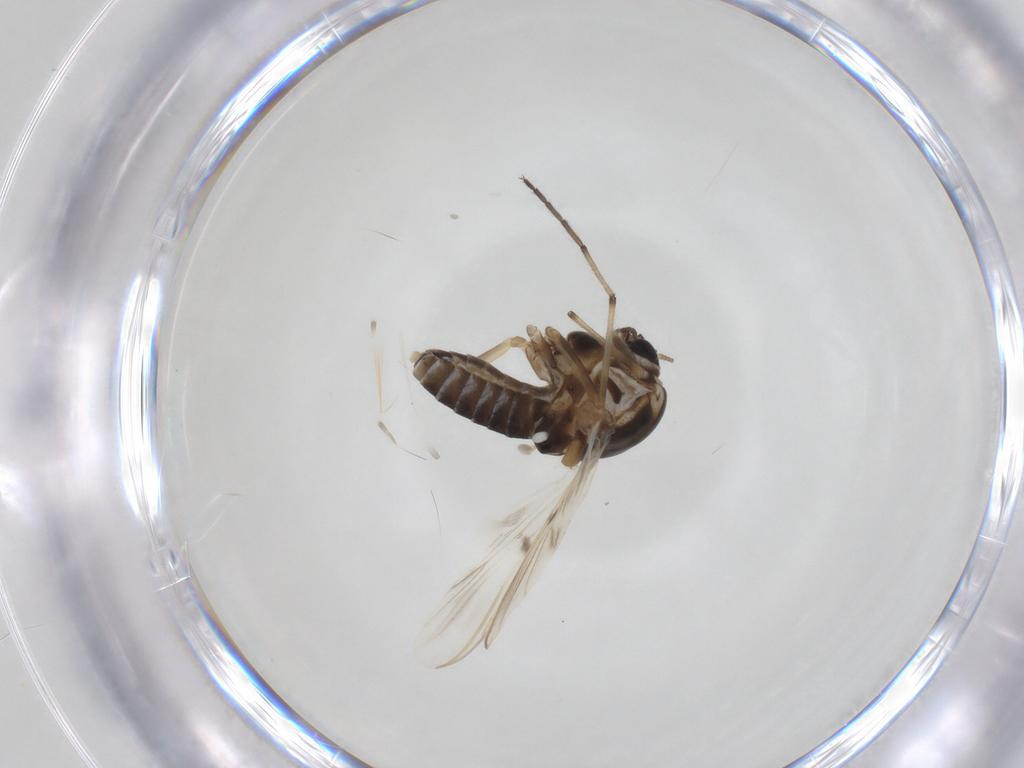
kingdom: Animalia
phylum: Arthropoda
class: Insecta
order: Diptera
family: Chironomidae
